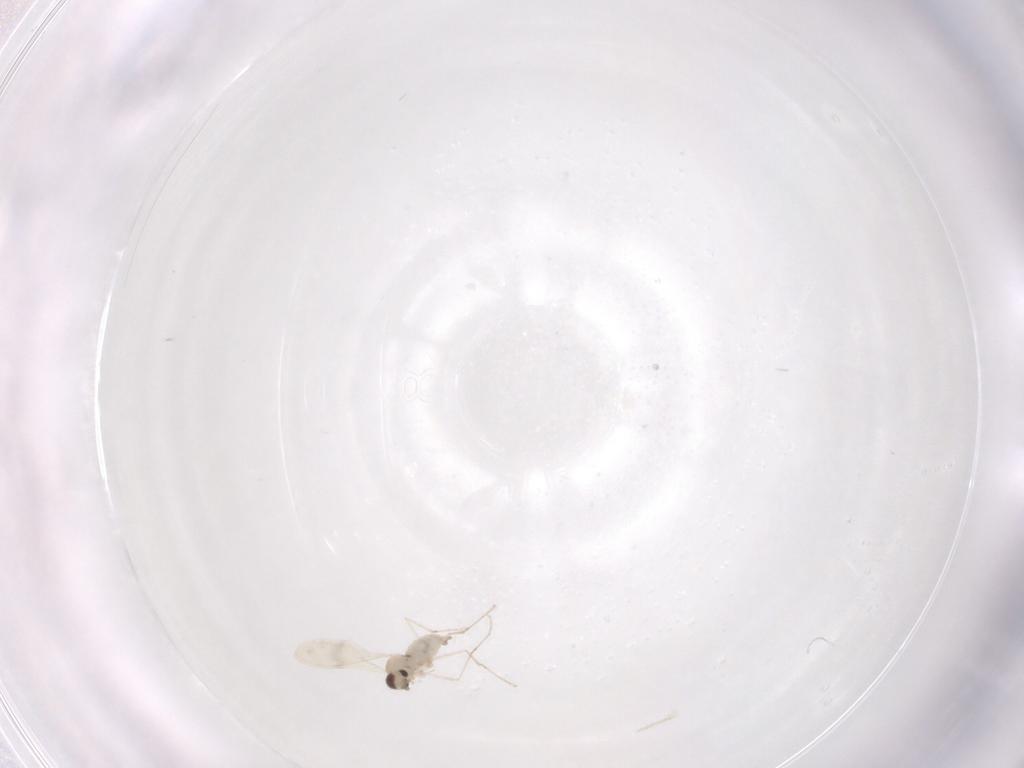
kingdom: Animalia
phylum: Arthropoda
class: Insecta
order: Diptera
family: Cecidomyiidae
